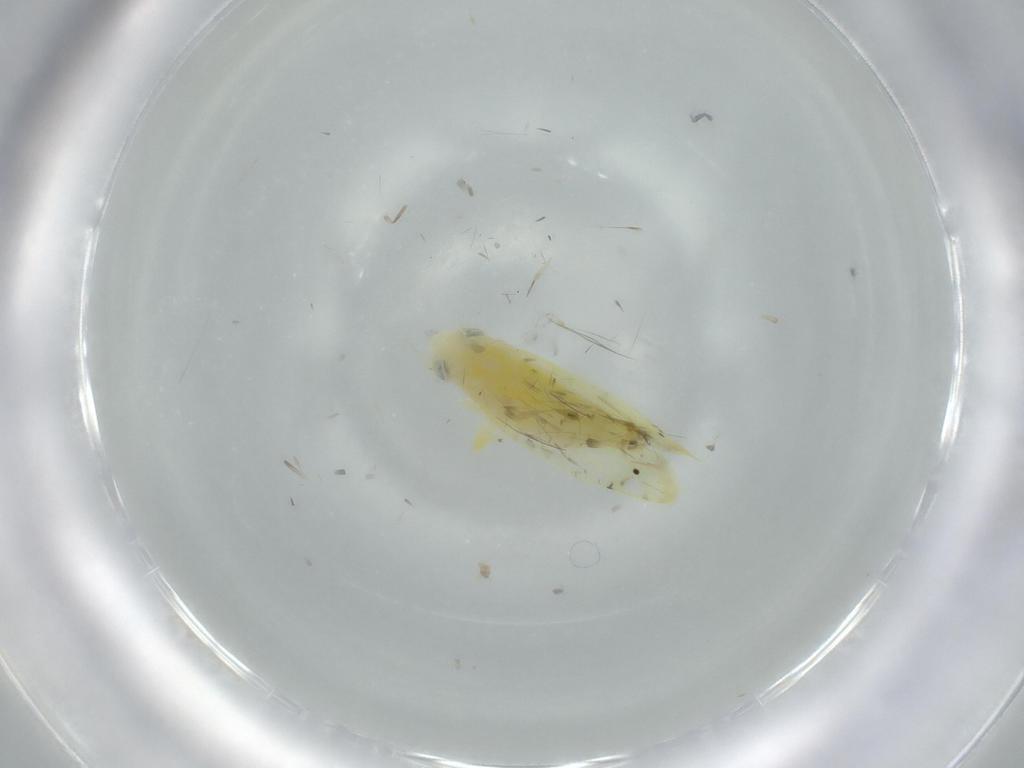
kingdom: Animalia
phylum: Arthropoda
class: Insecta
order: Hemiptera
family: Cicadellidae
